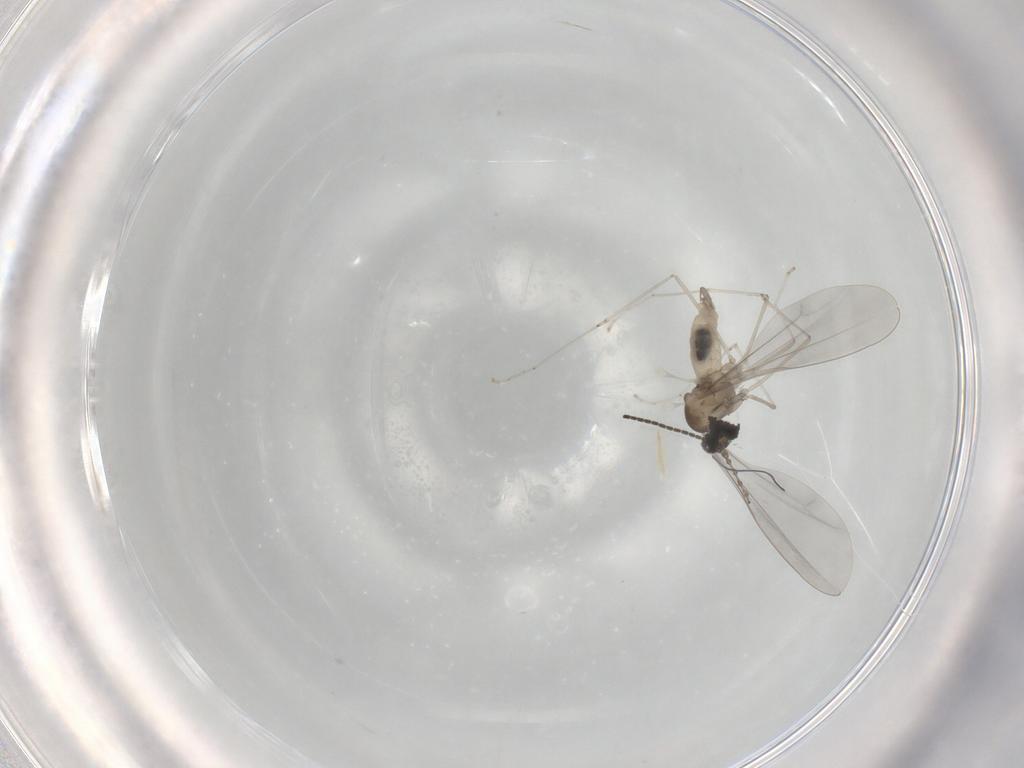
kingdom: Animalia
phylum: Arthropoda
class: Insecta
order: Diptera
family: Cecidomyiidae
